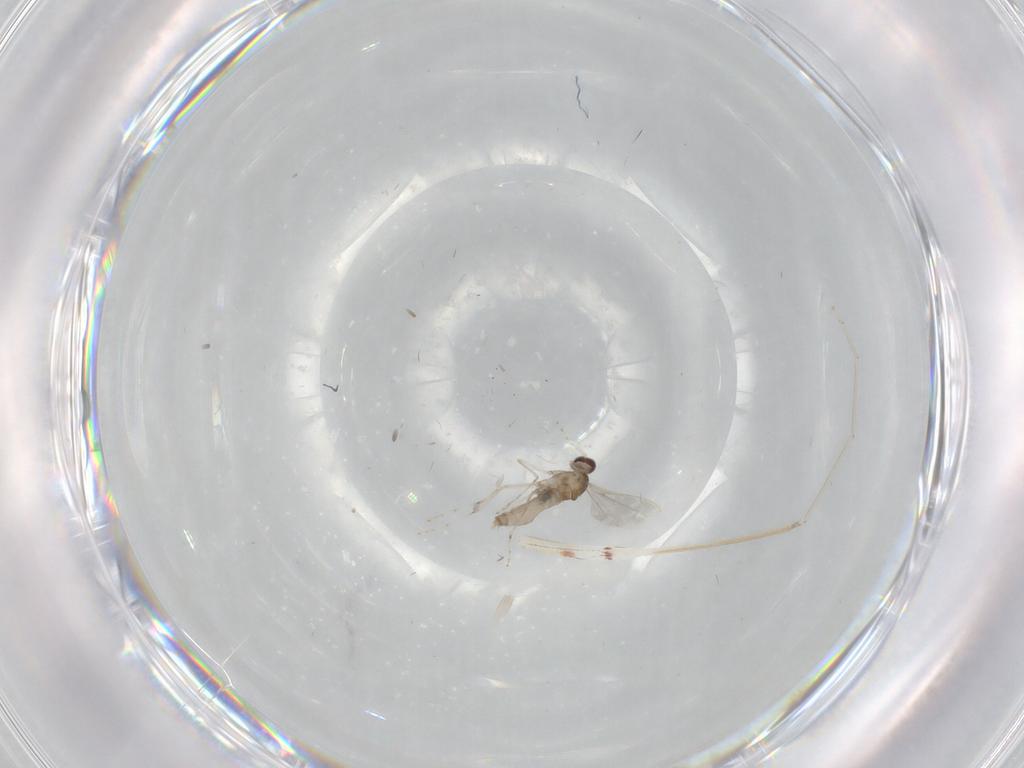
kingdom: Animalia
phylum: Arthropoda
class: Insecta
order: Diptera
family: Cecidomyiidae
